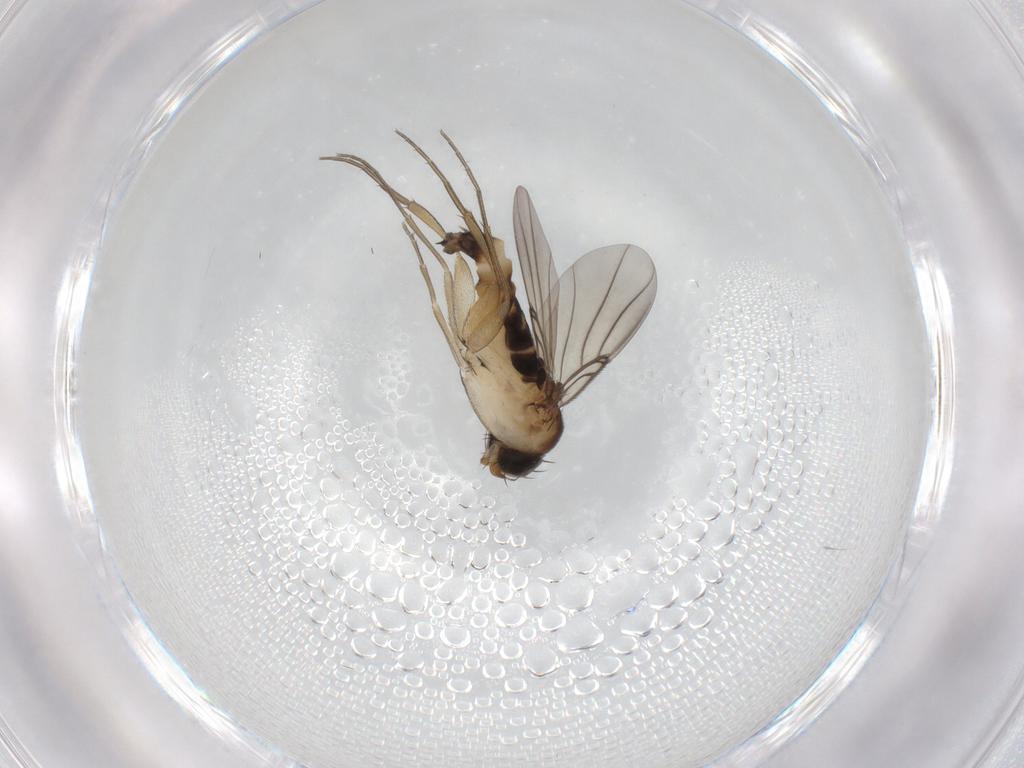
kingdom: Animalia
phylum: Arthropoda
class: Insecta
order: Diptera
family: Phoridae
